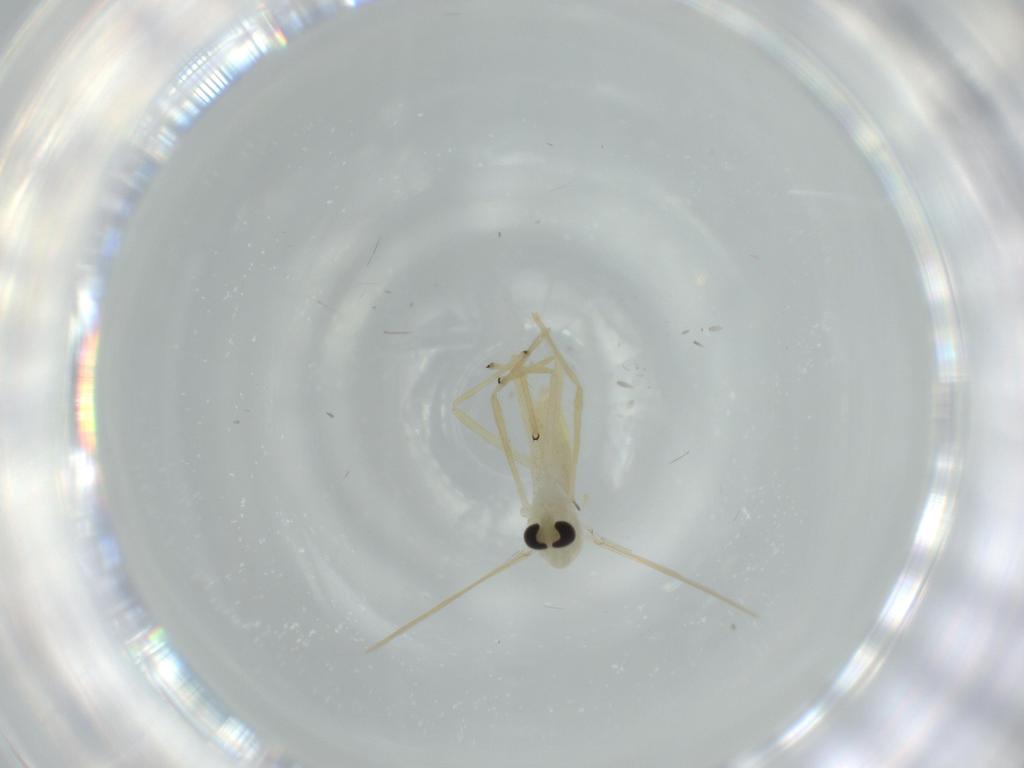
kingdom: Animalia
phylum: Arthropoda
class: Insecta
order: Diptera
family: Chironomidae
